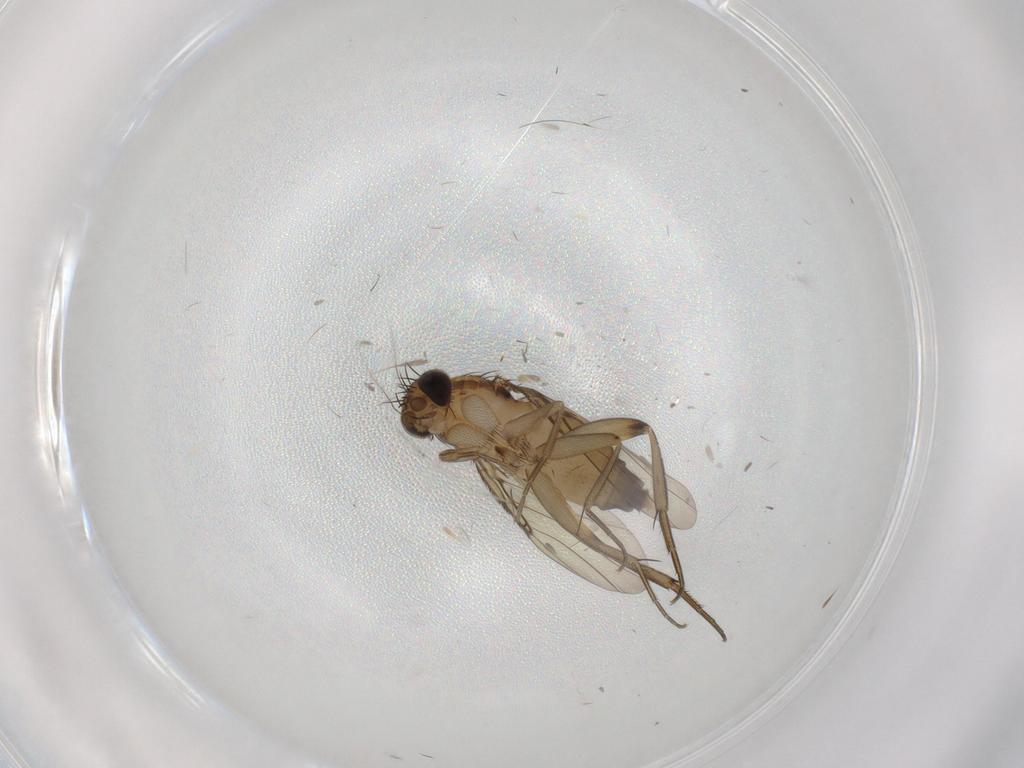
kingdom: Animalia
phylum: Arthropoda
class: Insecta
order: Diptera
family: Phoridae
